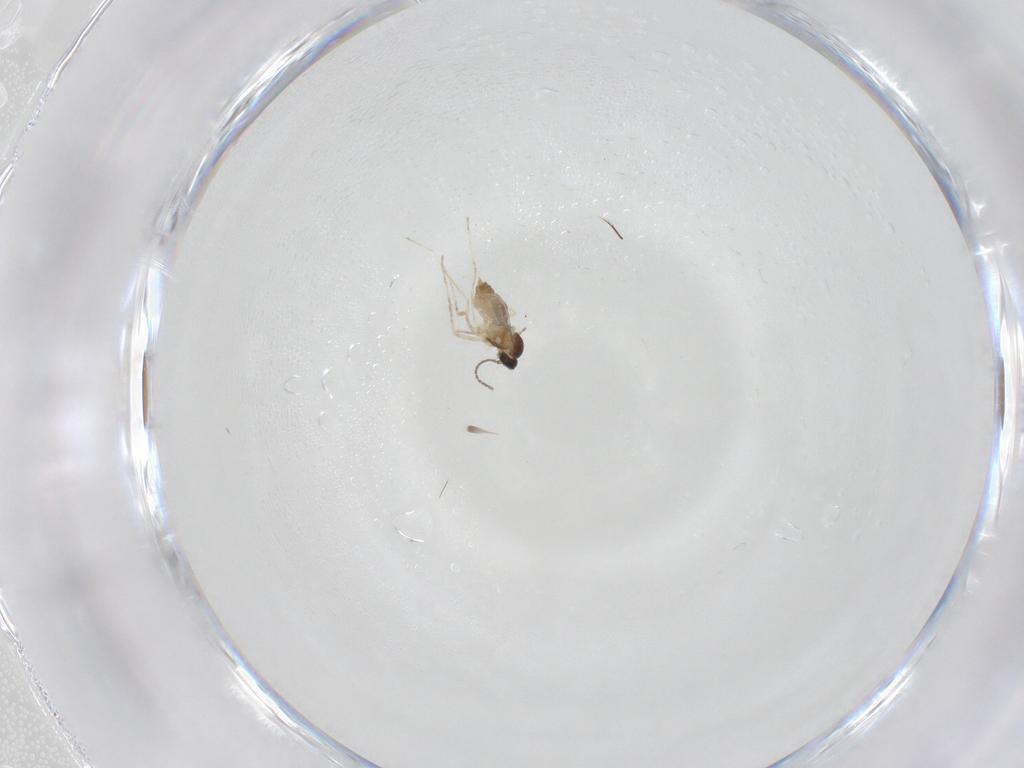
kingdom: Animalia
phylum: Arthropoda
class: Insecta
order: Diptera
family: Cecidomyiidae
